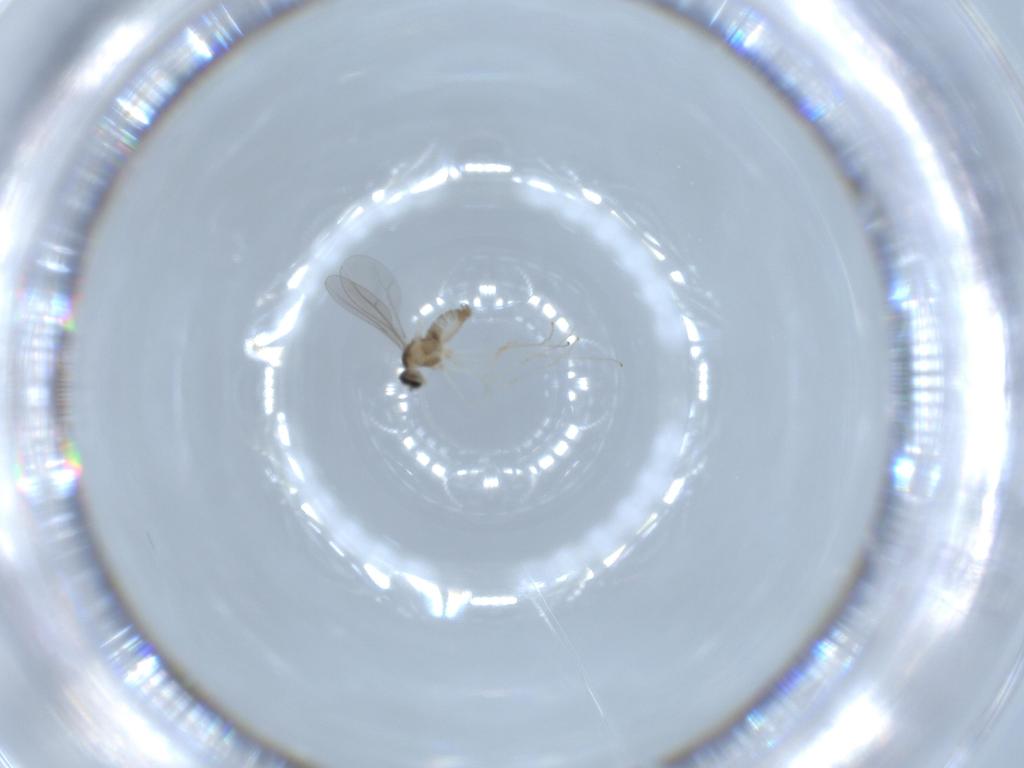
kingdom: Animalia
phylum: Arthropoda
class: Insecta
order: Diptera
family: Cecidomyiidae
